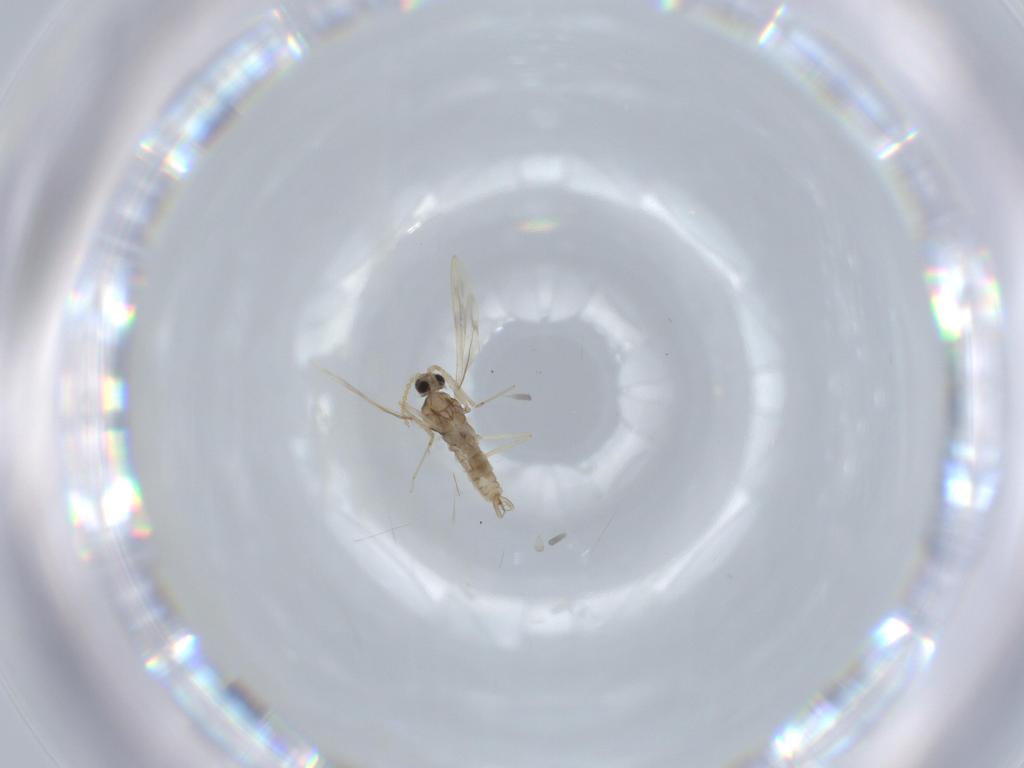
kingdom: Animalia
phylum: Arthropoda
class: Insecta
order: Diptera
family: Cecidomyiidae
